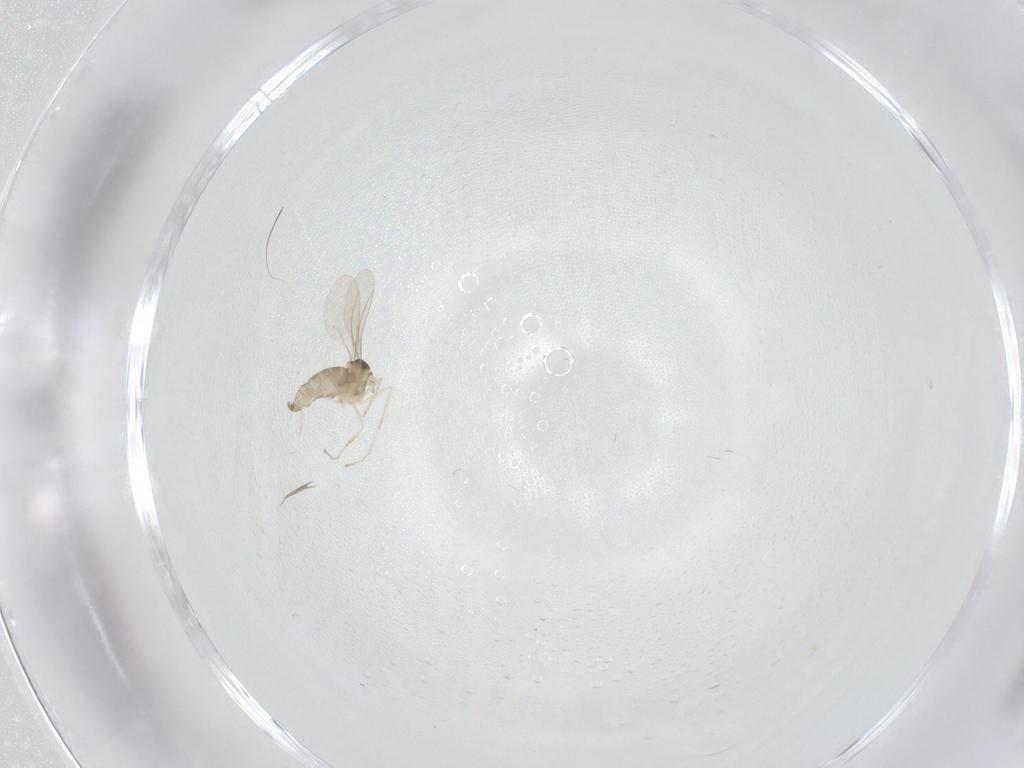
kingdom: Animalia
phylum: Arthropoda
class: Insecta
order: Diptera
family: Cecidomyiidae
